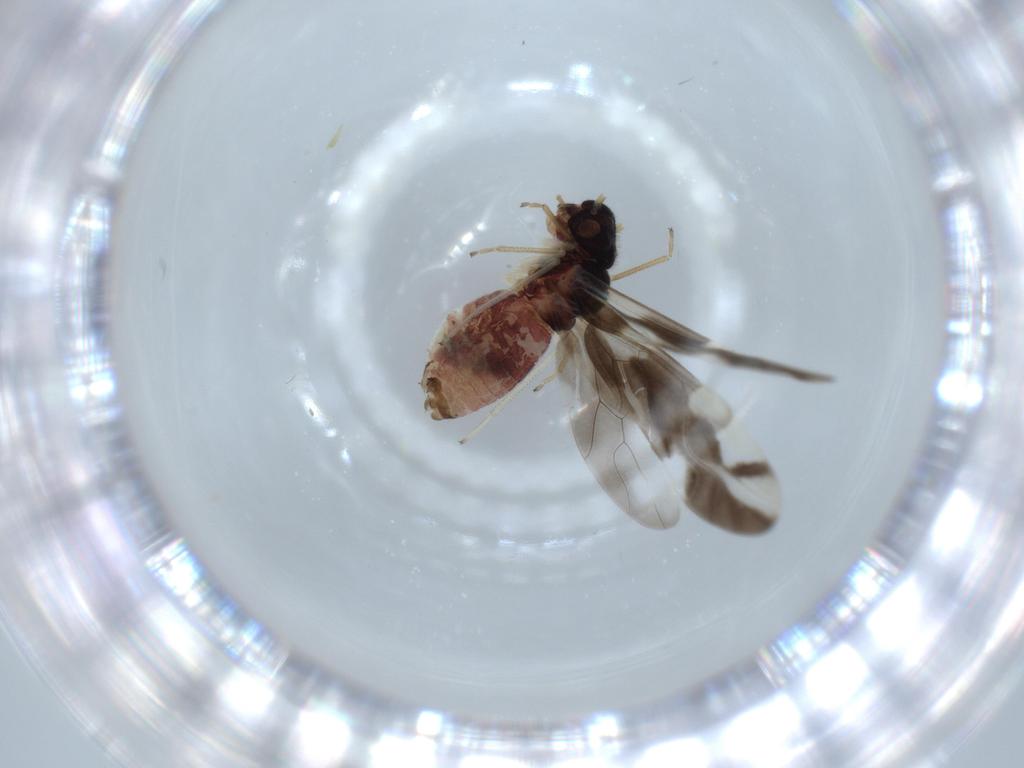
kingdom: Animalia
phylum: Arthropoda
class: Insecta
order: Psocodea
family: Caeciliusidae
